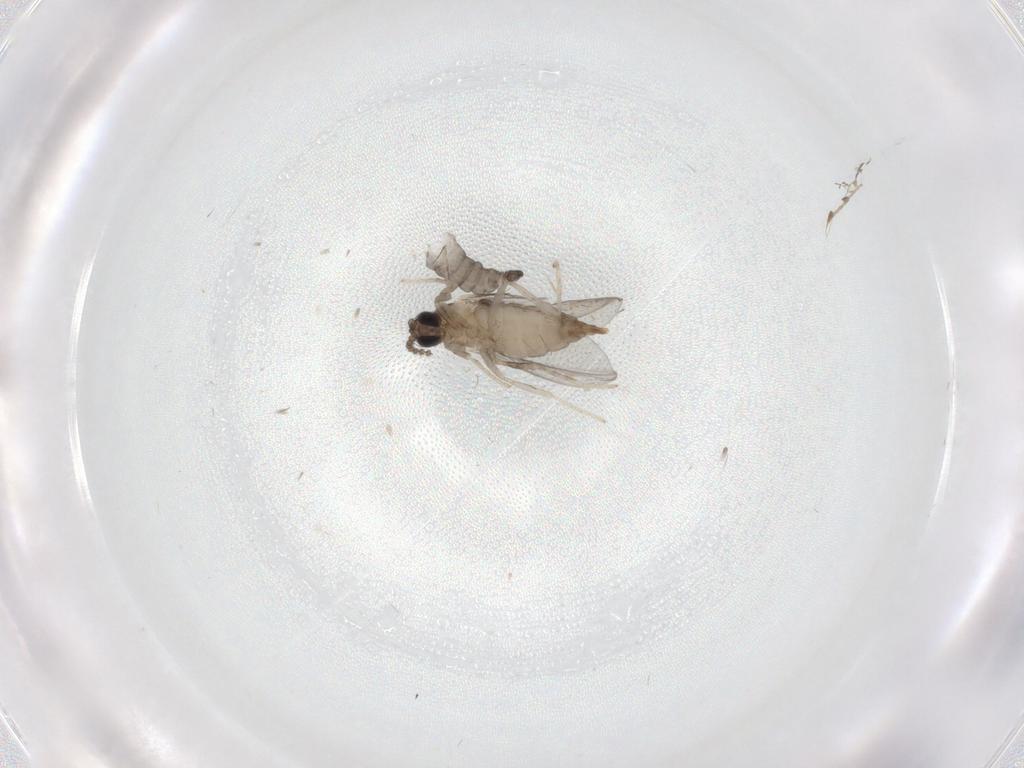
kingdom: Animalia
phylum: Arthropoda
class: Insecta
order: Diptera
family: Cecidomyiidae
